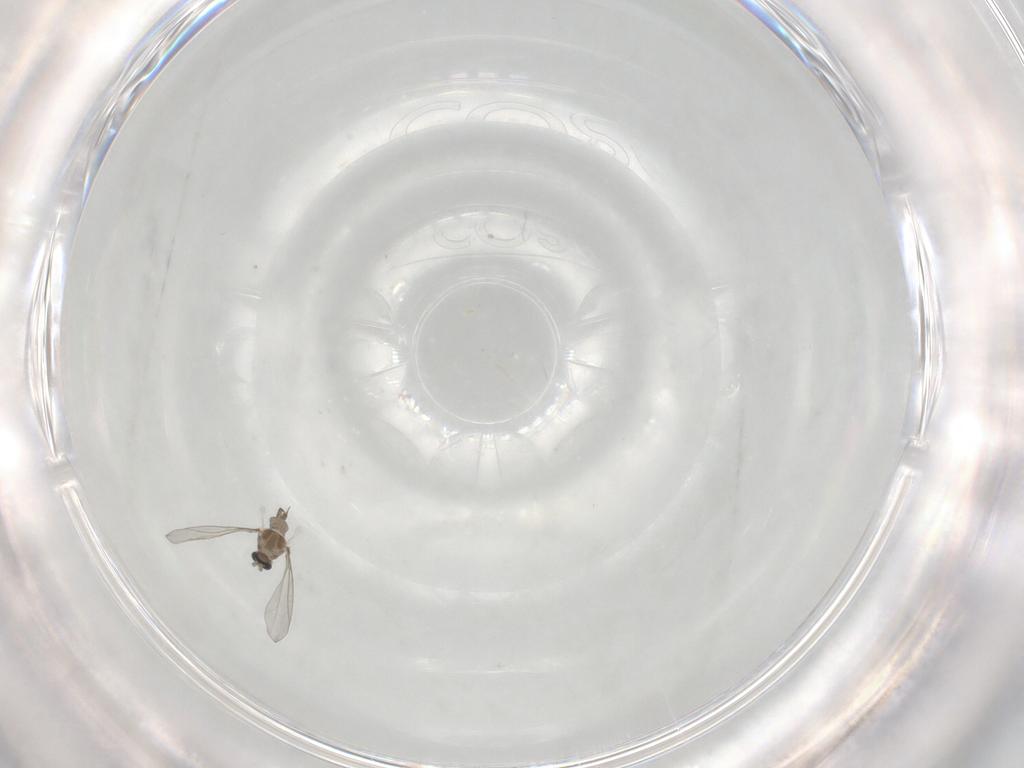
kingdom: Animalia
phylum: Arthropoda
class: Insecta
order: Diptera
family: Cecidomyiidae
